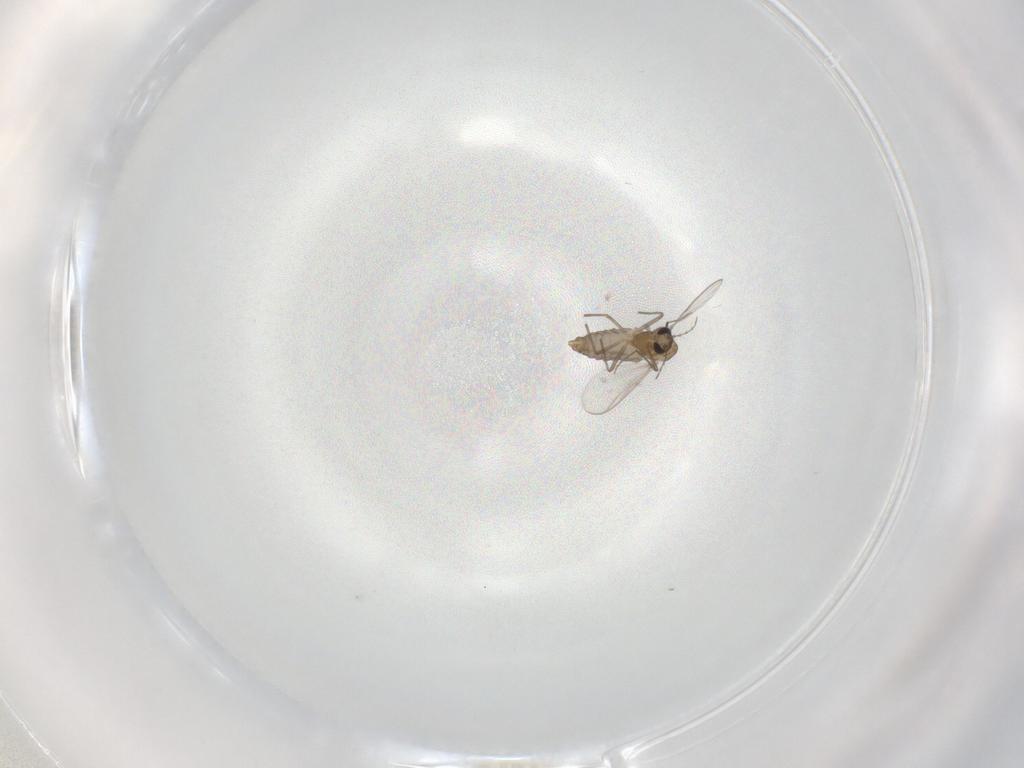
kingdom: Animalia
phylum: Arthropoda
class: Insecta
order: Diptera
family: Chironomidae
